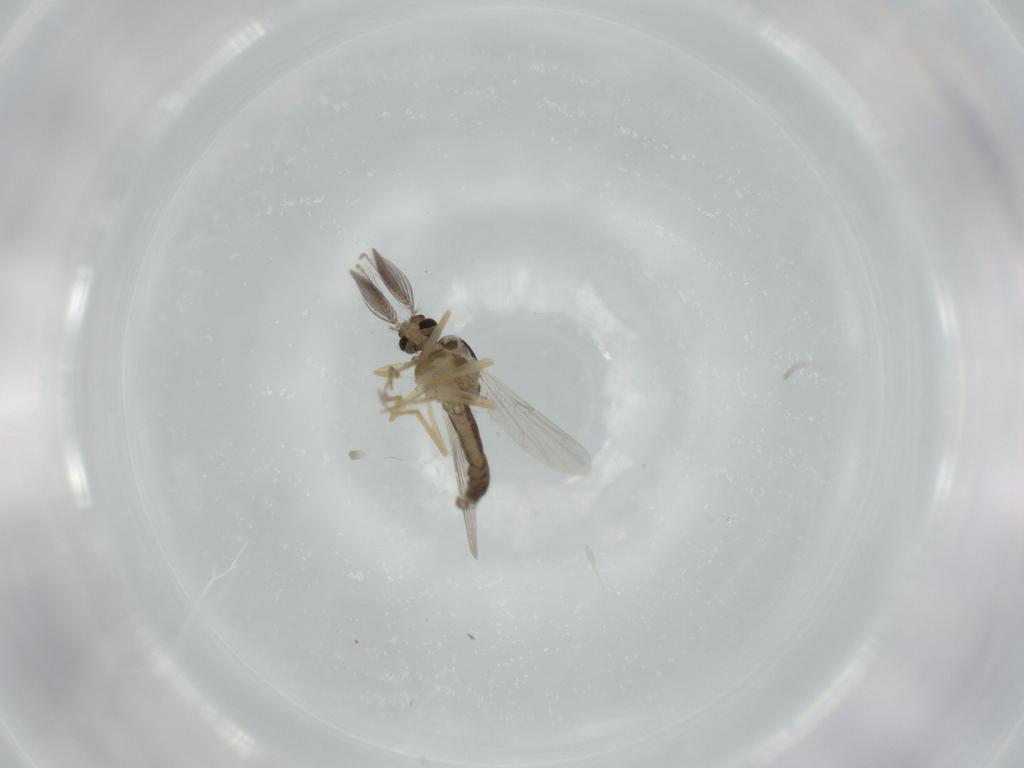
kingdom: Animalia
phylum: Arthropoda
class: Insecta
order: Diptera
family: Ceratopogonidae
